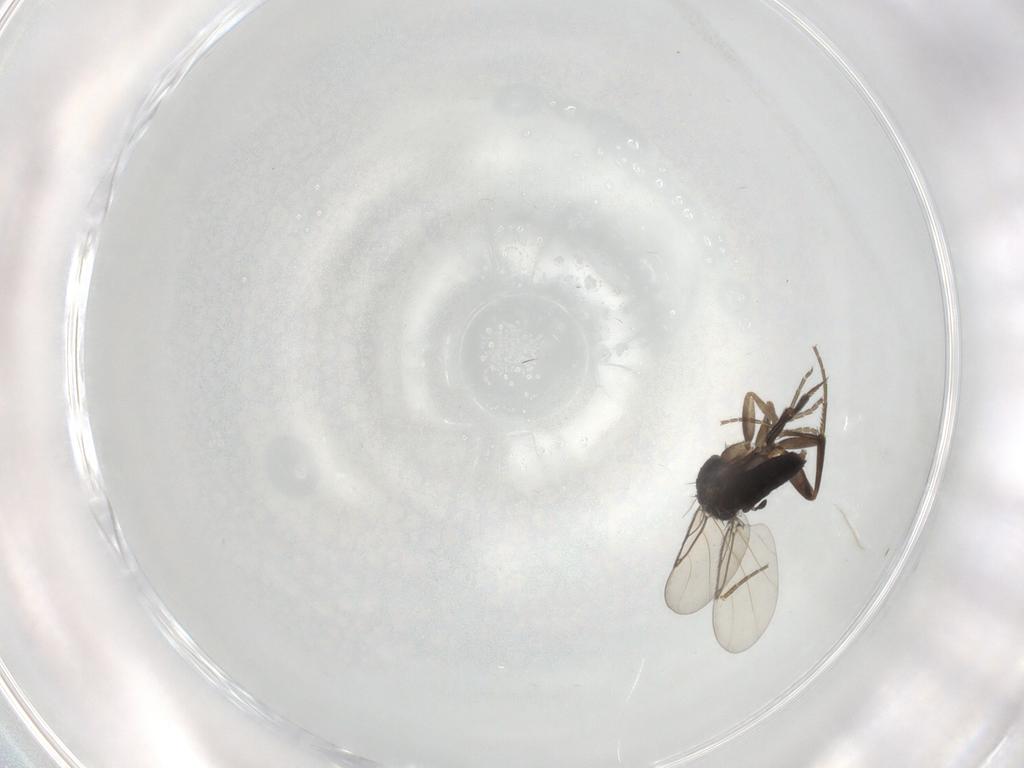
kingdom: Animalia
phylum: Arthropoda
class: Insecta
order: Diptera
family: Phoridae
